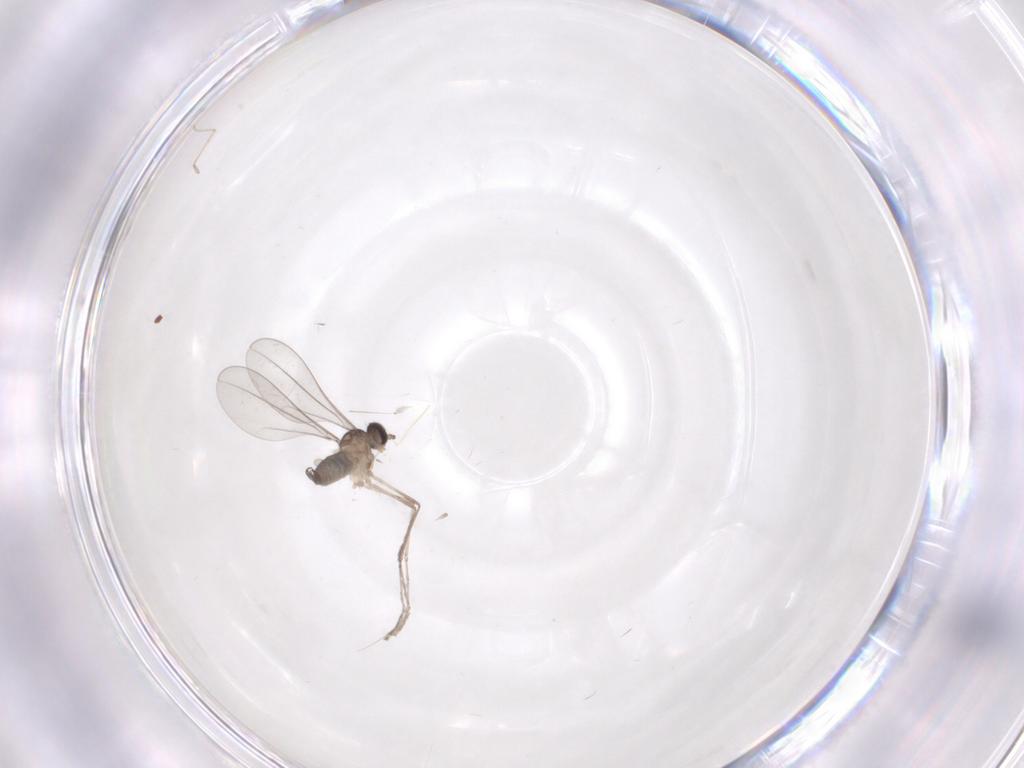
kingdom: Animalia
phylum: Arthropoda
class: Insecta
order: Diptera
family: Cecidomyiidae
